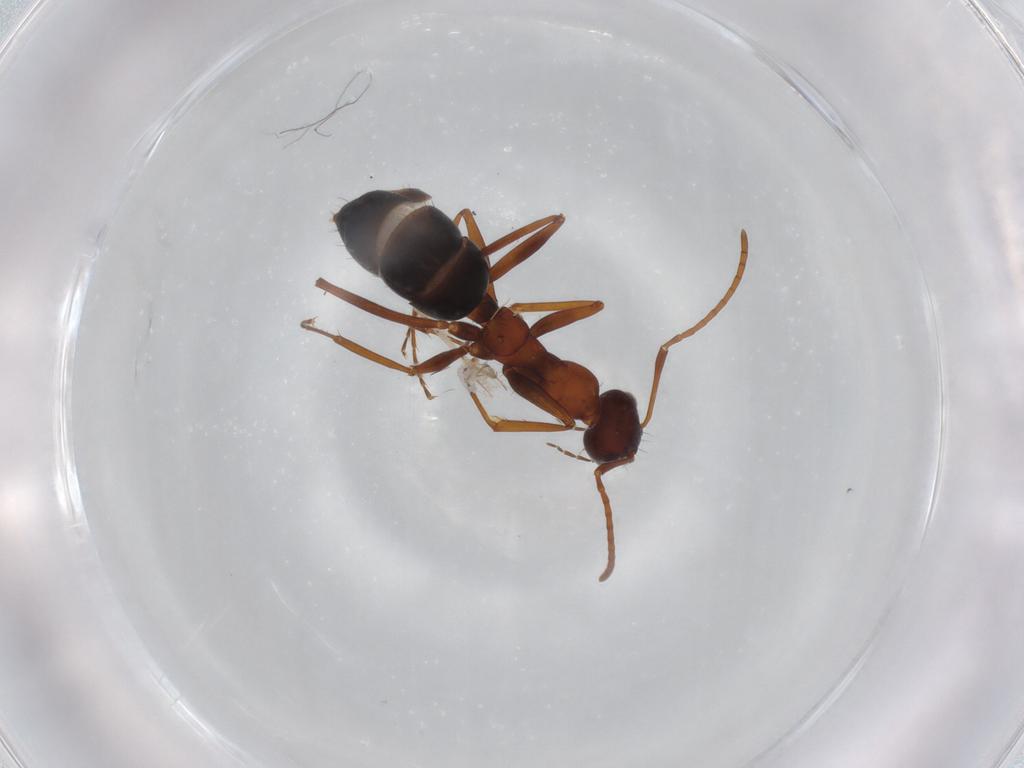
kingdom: Animalia
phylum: Arthropoda
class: Insecta
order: Hymenoptera
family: Formicidae
